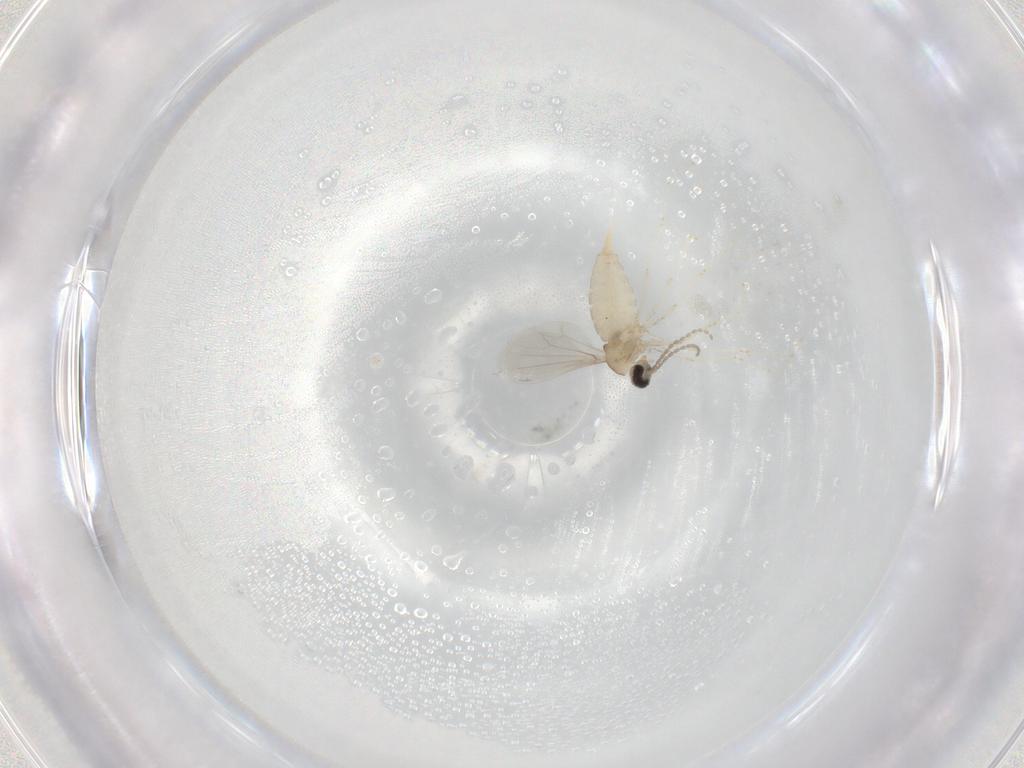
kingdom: Animalia
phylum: Arthropoda
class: Insecta
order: Diptera
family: Cecidomyiidae
